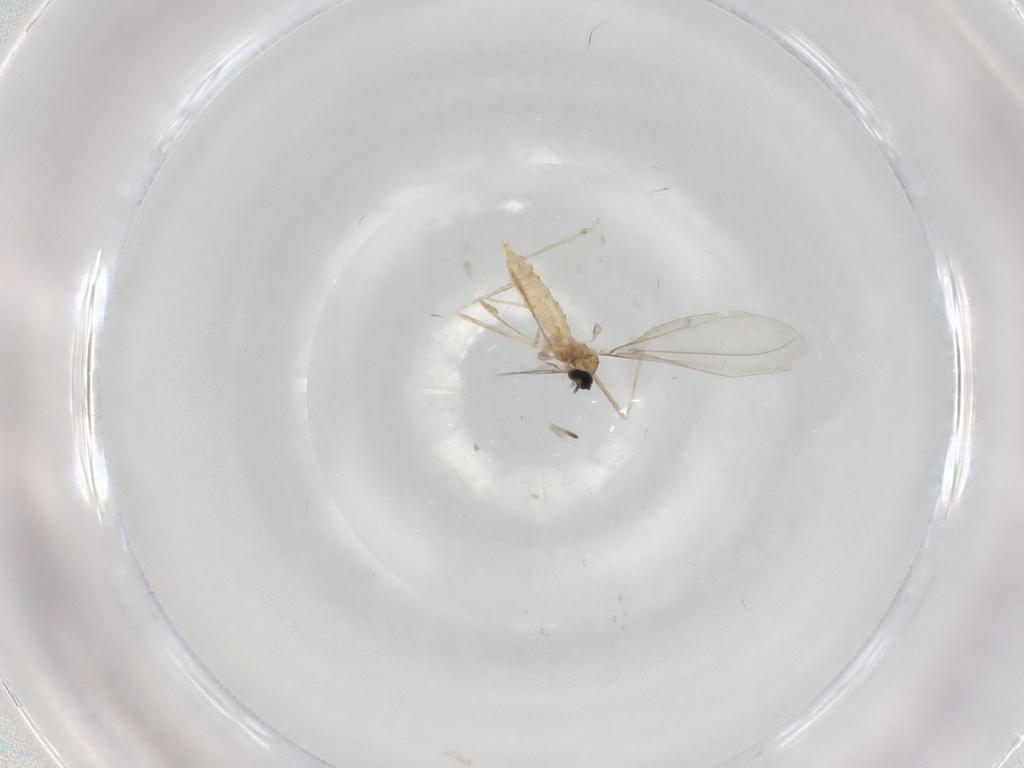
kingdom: Animalia
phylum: Arthropoda
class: Insecta
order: Diptera
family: Cecidomyiidae
